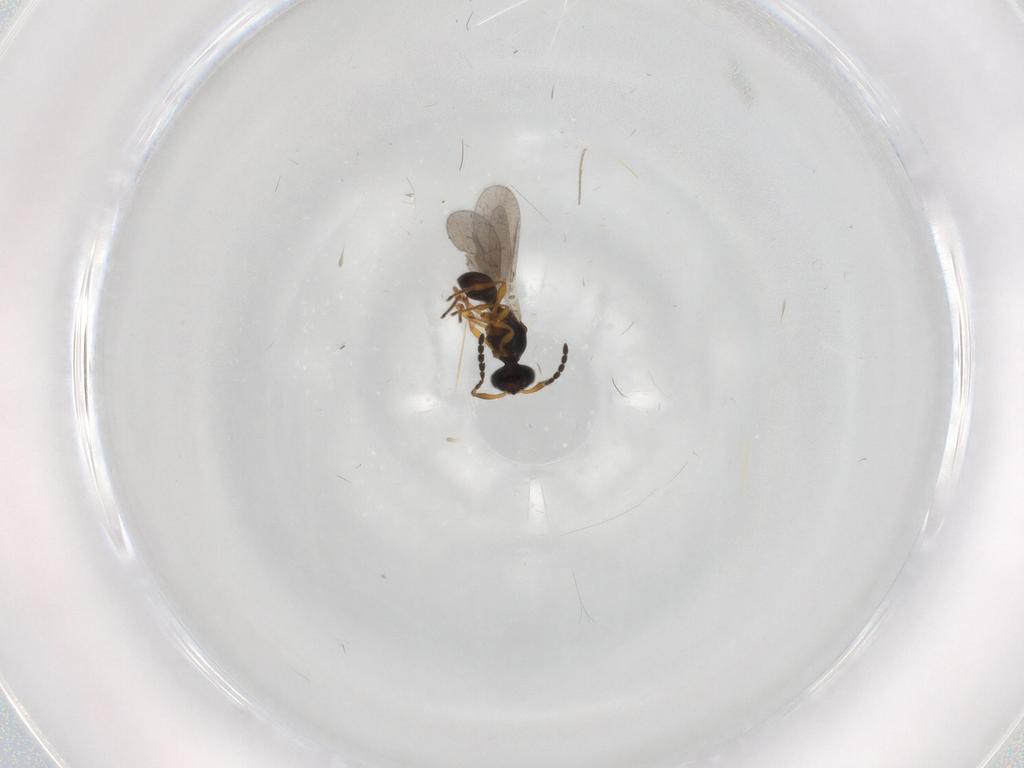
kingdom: Animalia
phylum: Arthropoda
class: Insecta
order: Hymenoptera
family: Platygastridae
